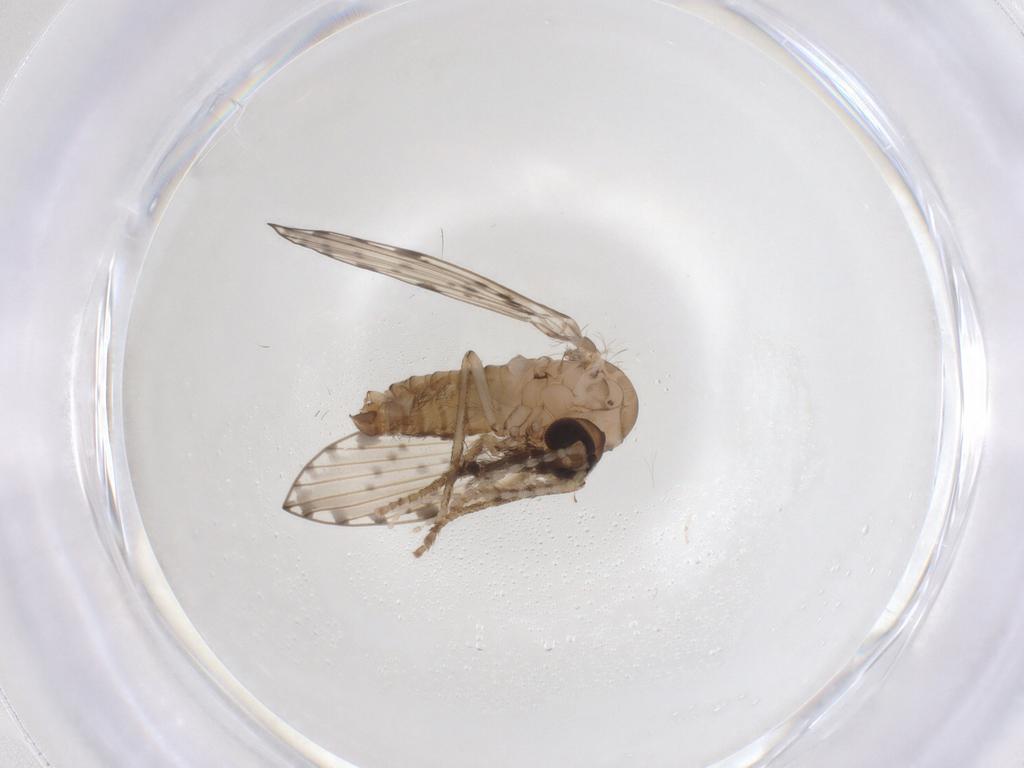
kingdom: Animalia
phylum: Arthropoda
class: Insecta
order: Diptera
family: Psychodidae
